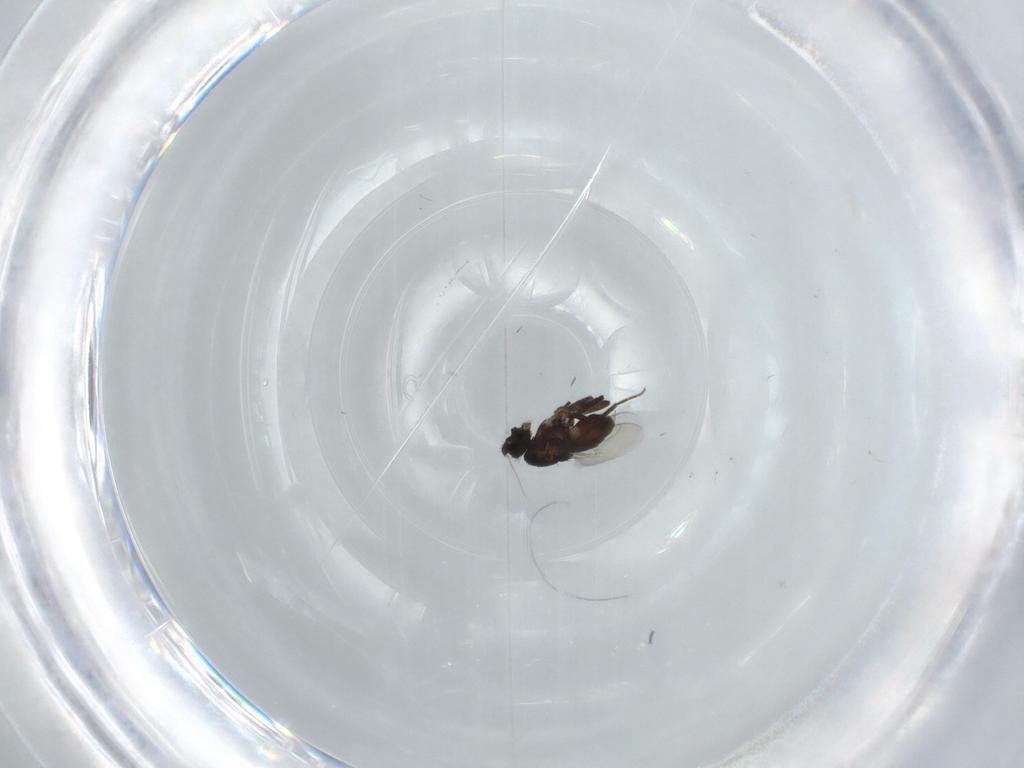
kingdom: Animalia
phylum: Arthropoda
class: Insecta
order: Diptera
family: Limoniidae
